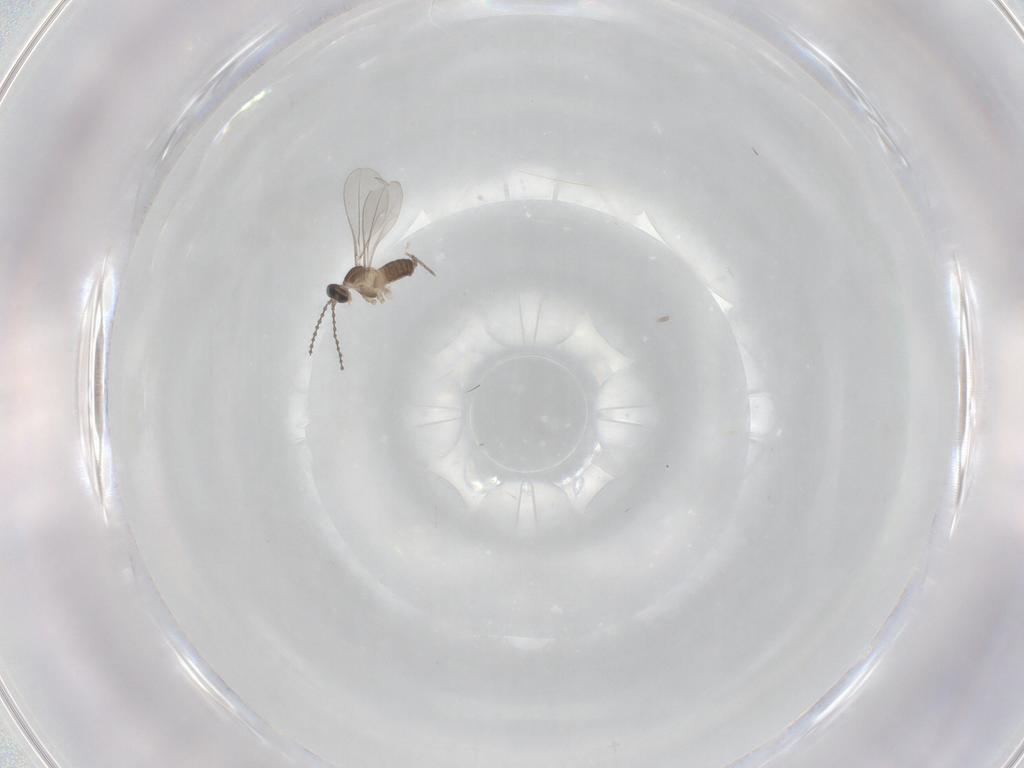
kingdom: Animalia
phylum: Arthropoda
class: Insecta
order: Diptera
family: Cecidomyiidae
